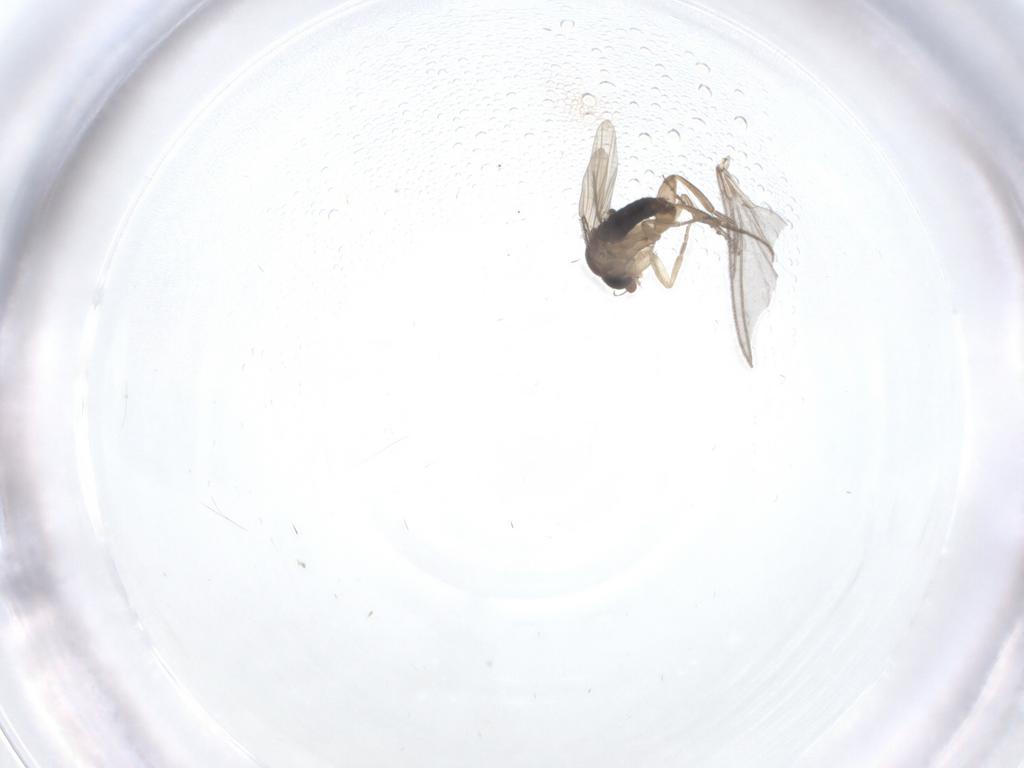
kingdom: Animalia
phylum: Arthropoda
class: Insecta
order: Diptera
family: Phoridae
